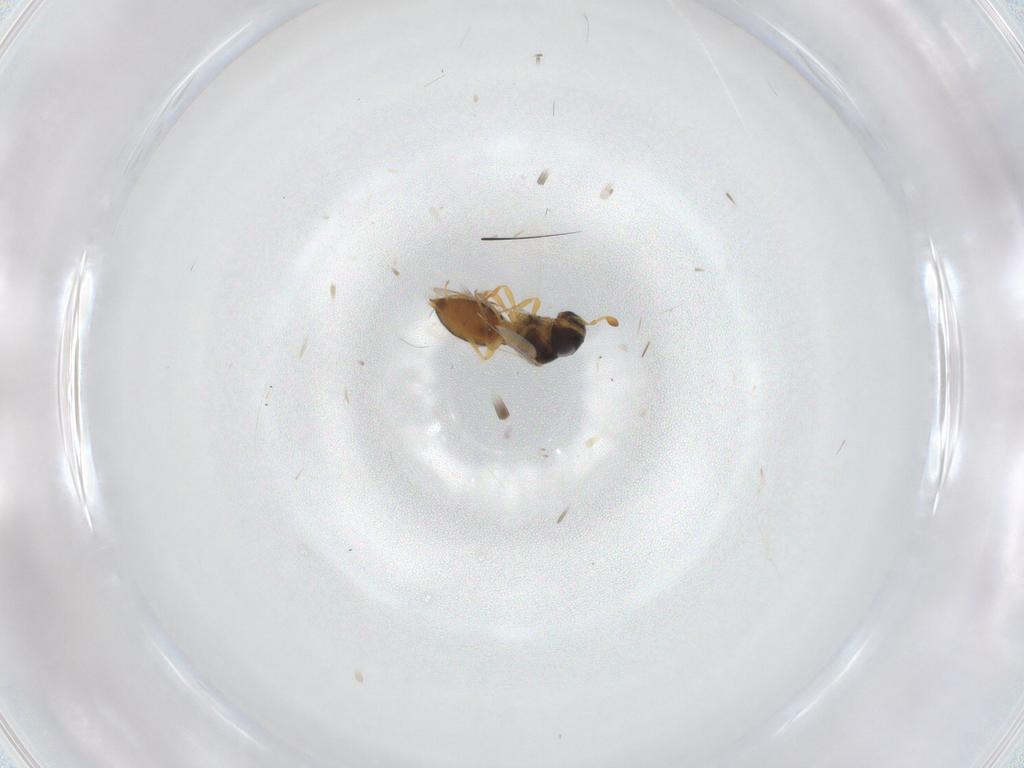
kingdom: Animalia
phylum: Arthropoda
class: Insecta
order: Hymenoptera
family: Scelionidae
